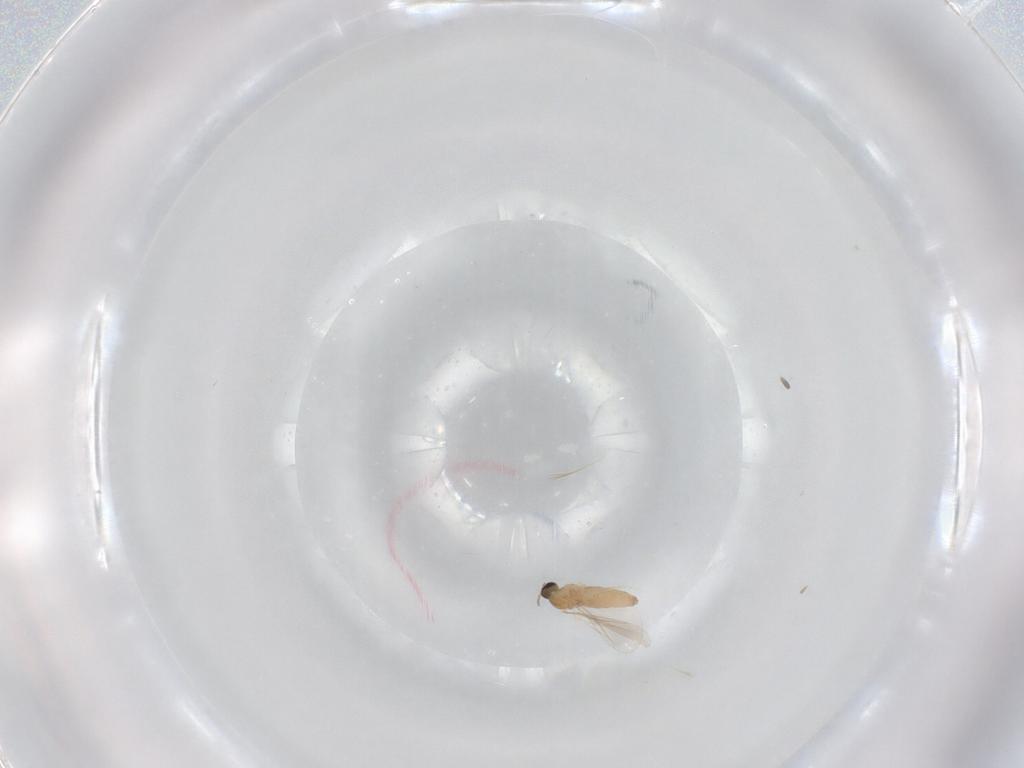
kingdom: Animalia
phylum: Arthropoda
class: Insecta
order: Diptera
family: Cecidomyiidae
